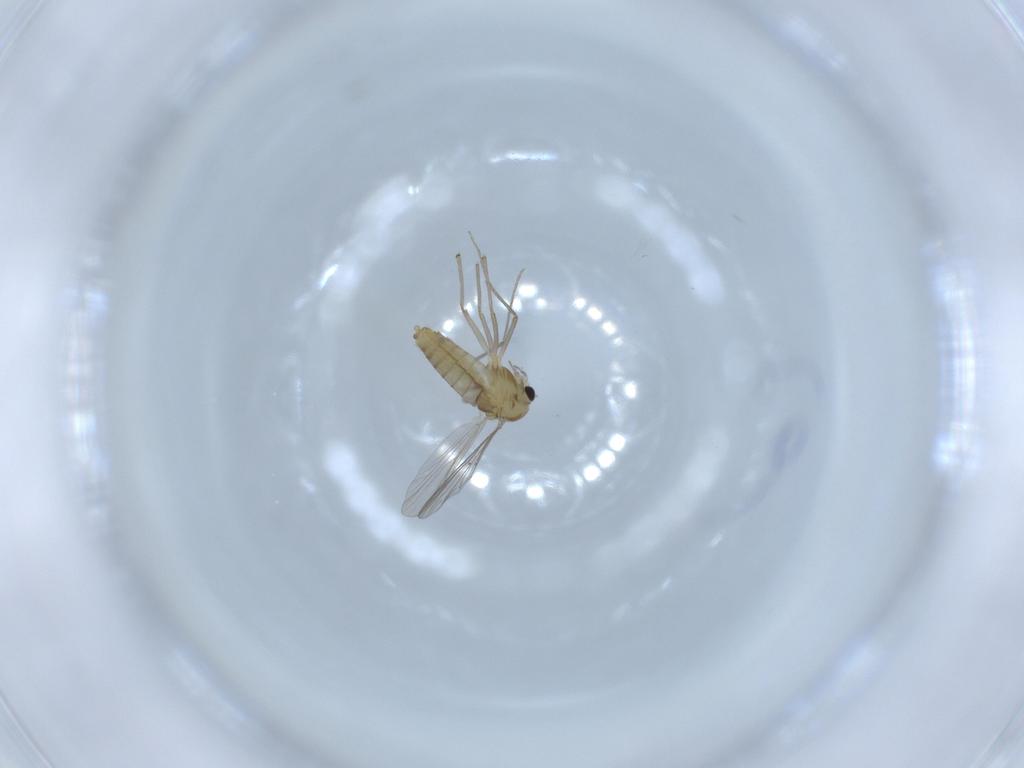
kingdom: Animalia
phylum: Arthropoda
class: Insecta
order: Diptera
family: Chironomidae
